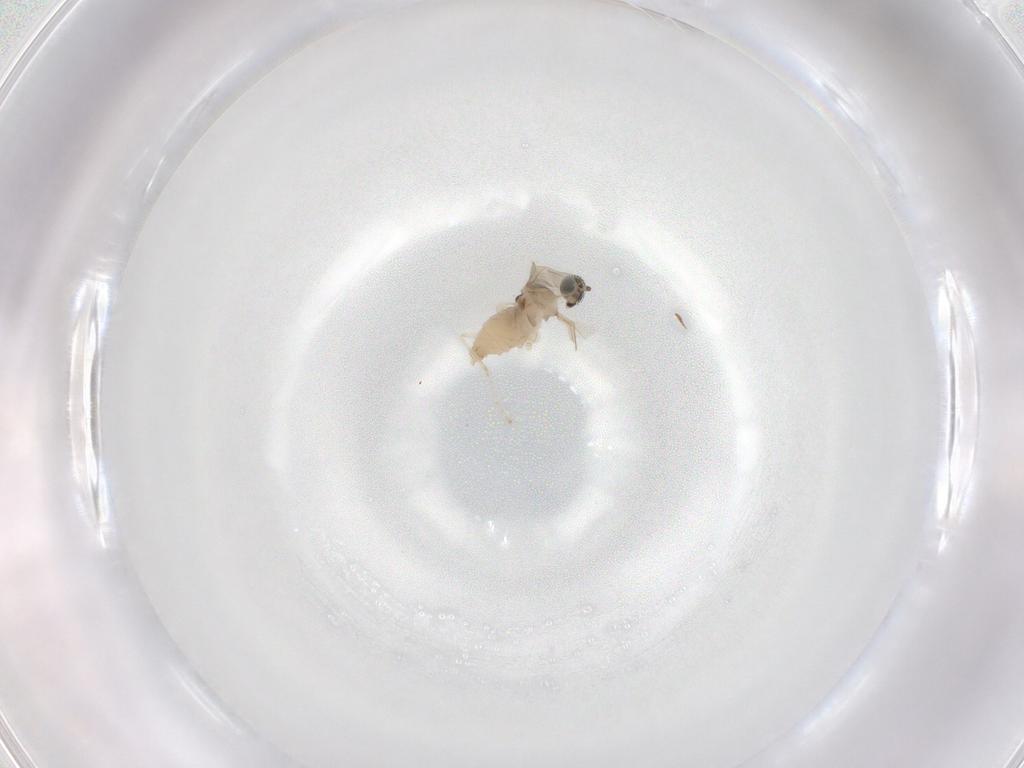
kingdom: Animalia
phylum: Arthropoda
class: Insecta
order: Diptera
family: Cecidomyiidae
